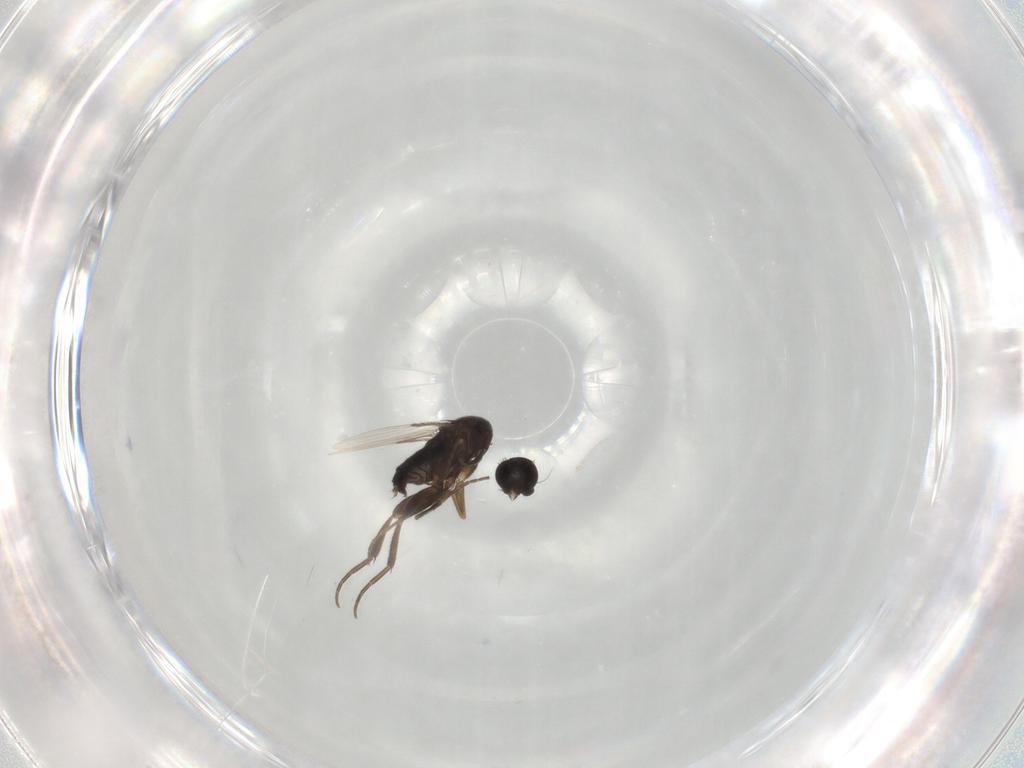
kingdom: Animalia
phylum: Arthropoda
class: Insecta
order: Diptera
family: Phoridae
